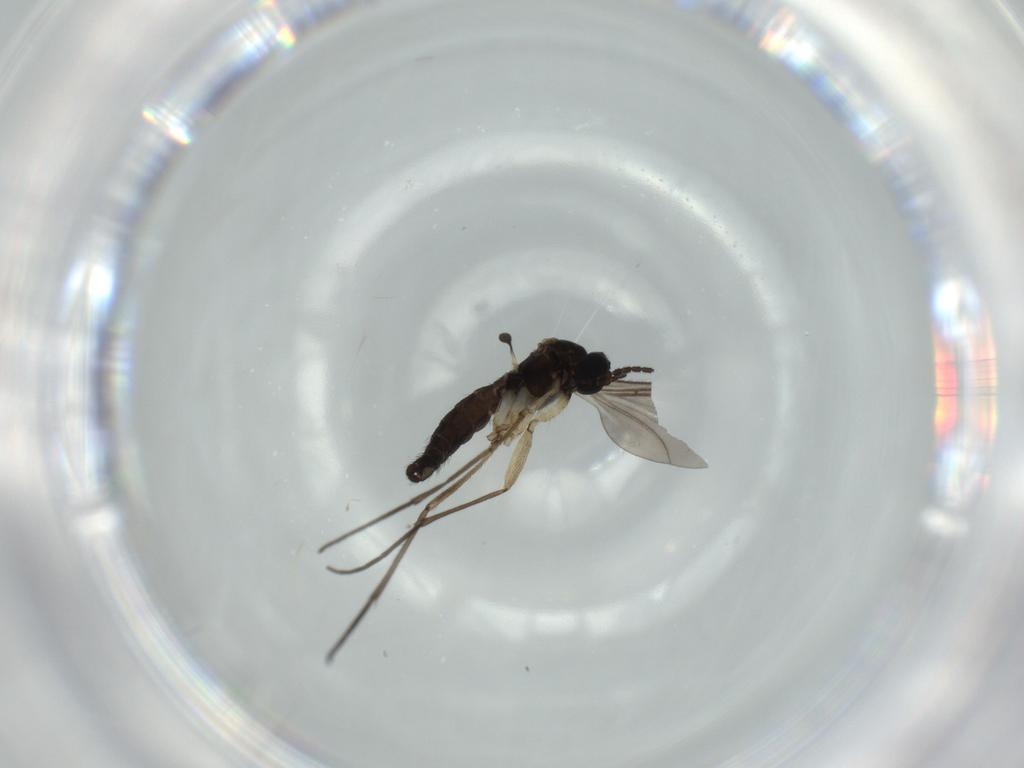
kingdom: Animalia
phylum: Arthropoda
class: Insecta
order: Diptera
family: Sciaridae
